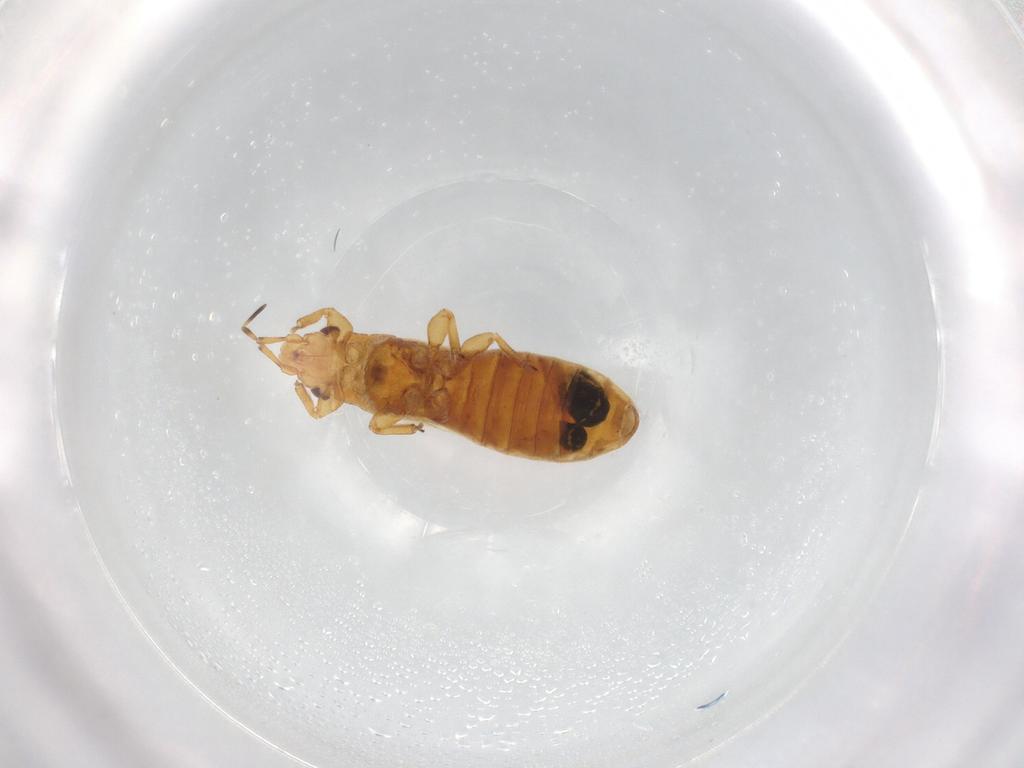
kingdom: Animalia
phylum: Arthropoda
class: Insecta
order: Hemiptera
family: Thaumastocoridae
